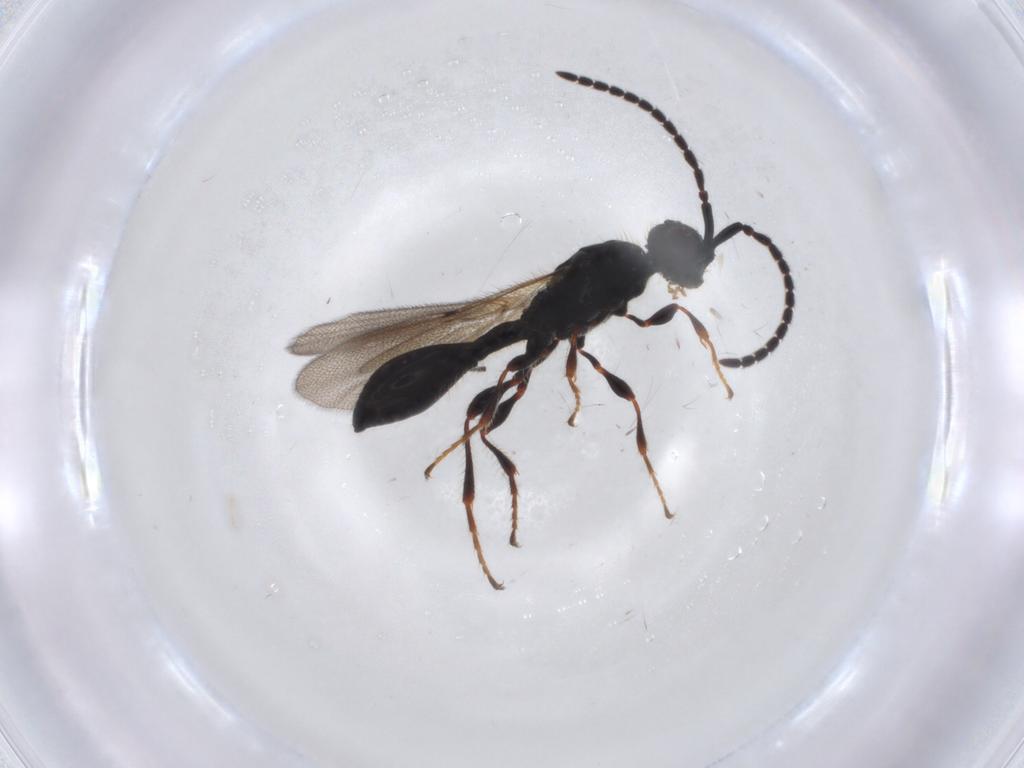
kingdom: Animalia
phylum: Arthropoda
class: Insecta
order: Hymenoptera
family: Diapriidae
